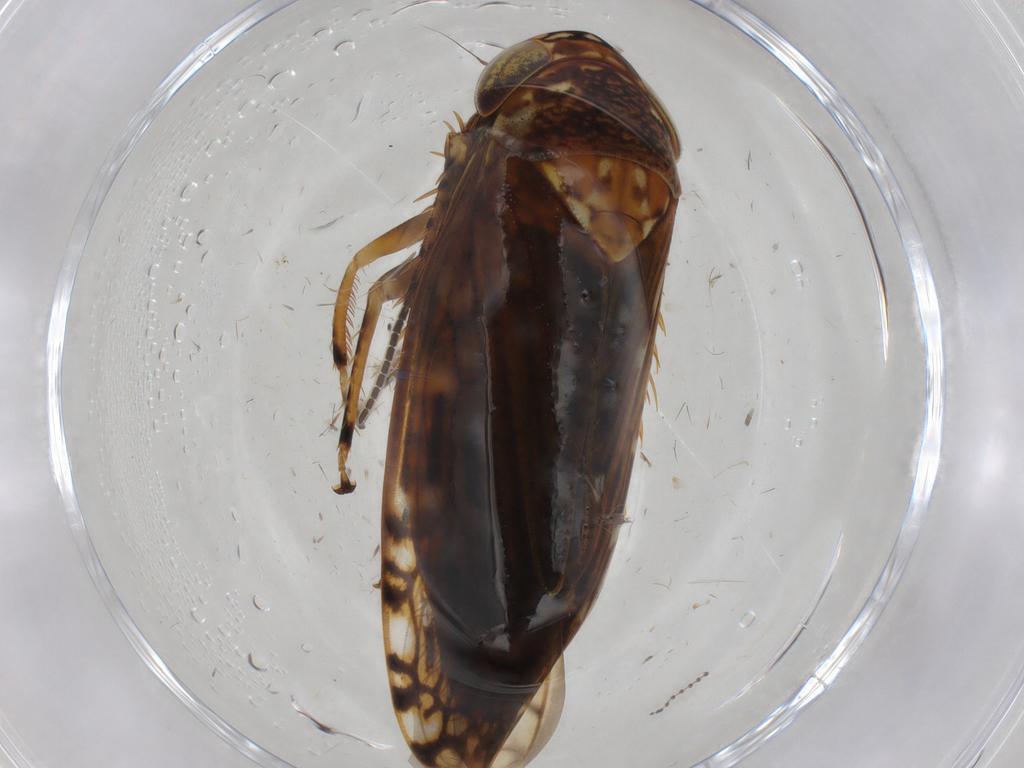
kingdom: Animalia
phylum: Arthropoda
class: Insecta
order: Hemiptera
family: Cicadellidae
